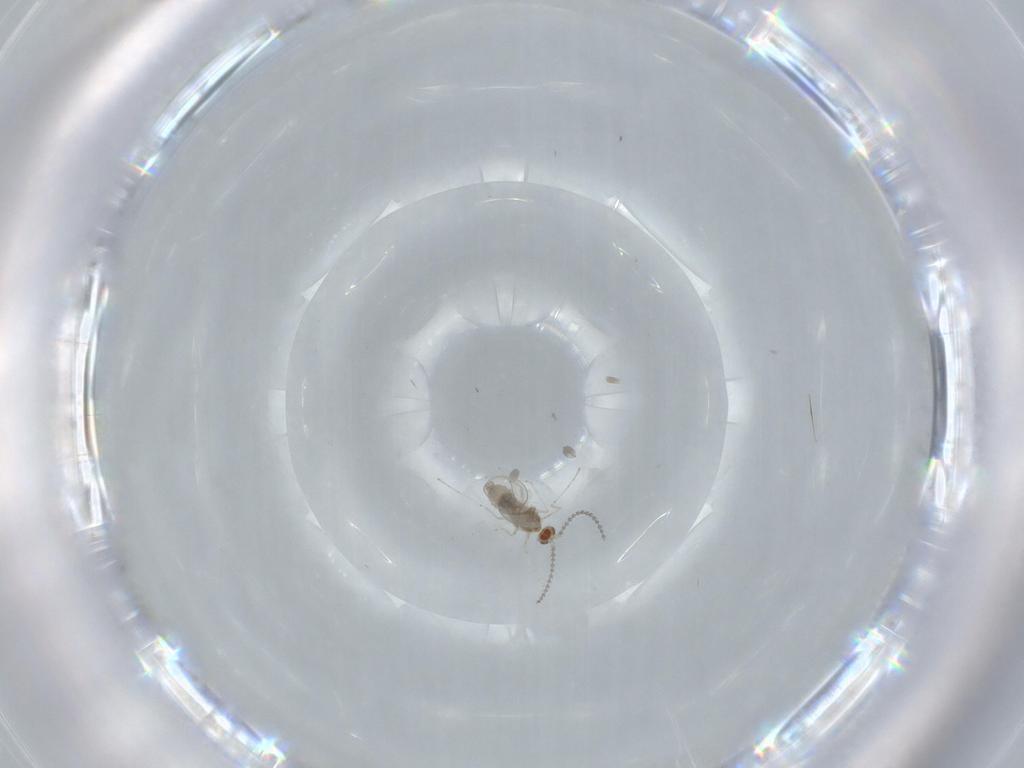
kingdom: Animalia
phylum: Arthropoda
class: Insecta
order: Diptera
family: Cecidomyiidae
